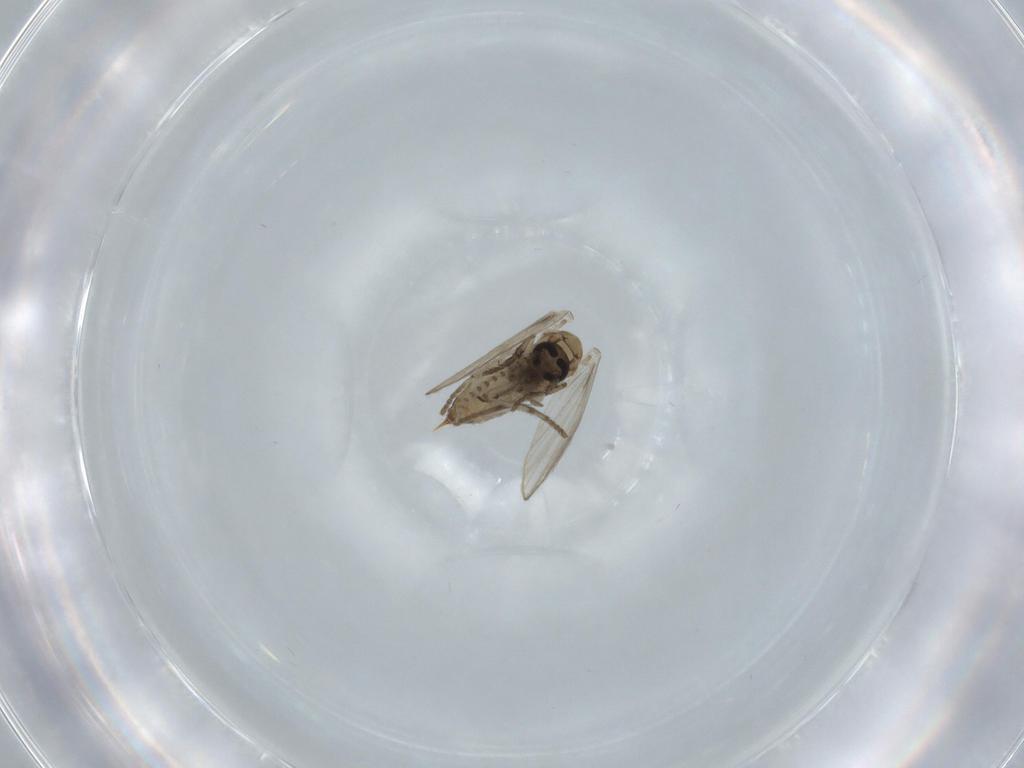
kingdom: Animalia
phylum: Arthropoda
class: Insecta
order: Diptera
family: Psychodidae
